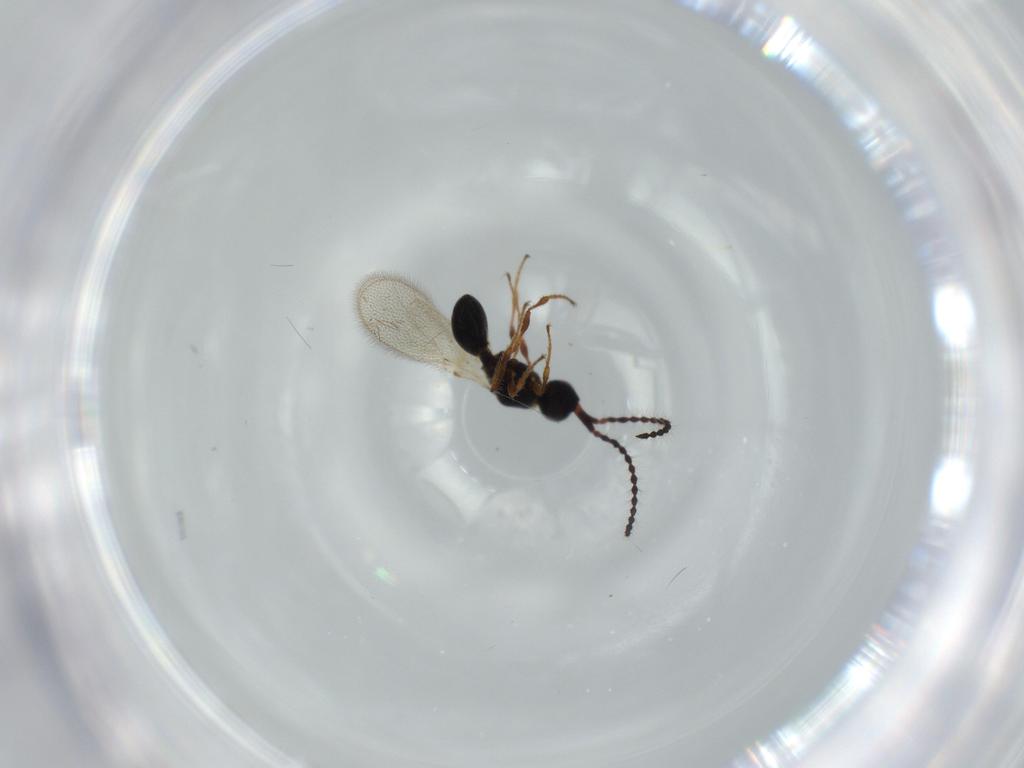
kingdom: Animalia
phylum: Arthropoda
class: Insecta
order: Hymenoptera
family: Diapriidae
